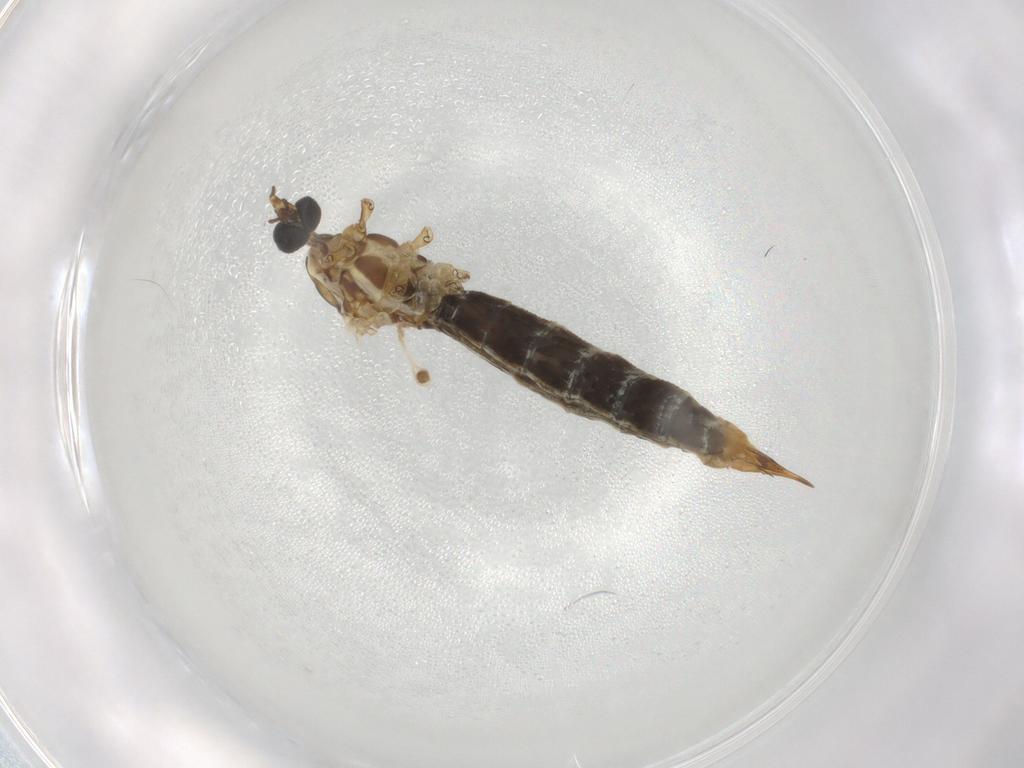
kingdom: Animalia
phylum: Arthropoda
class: Insecta
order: Diptera
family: Limoniidae
